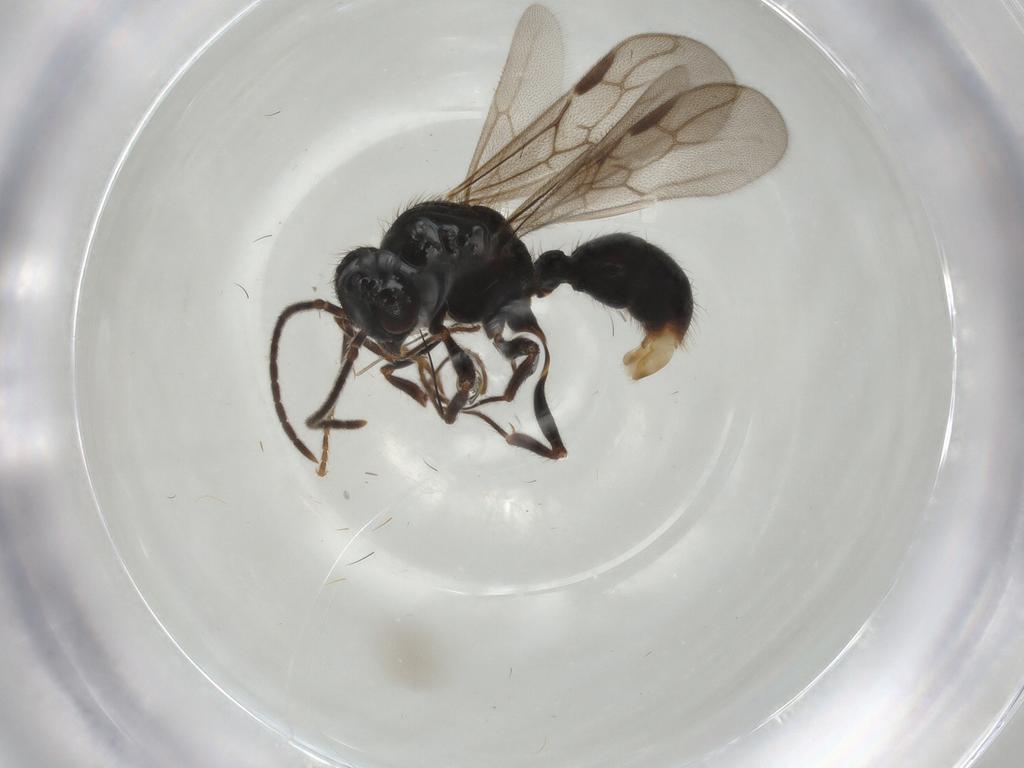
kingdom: Animalia
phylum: Arthropoda
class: Insecta
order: Hymenoptera
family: Formicidae
